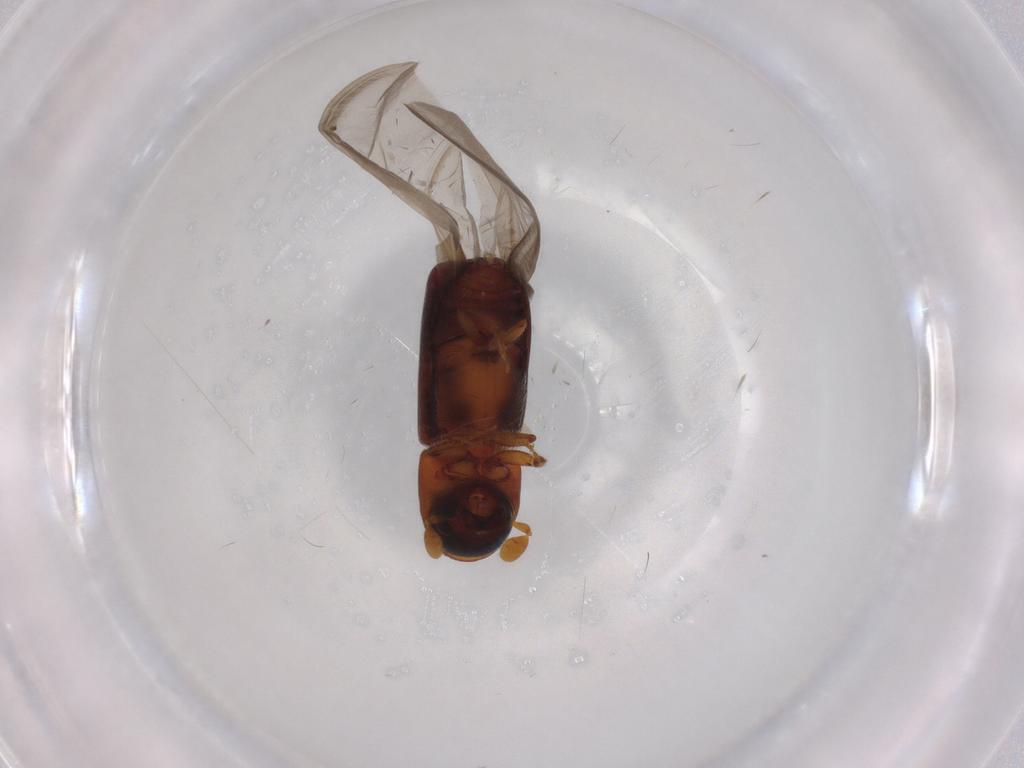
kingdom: Animalia
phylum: Arthropoda
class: Insecta
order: Coleoptera
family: Curculionidae
